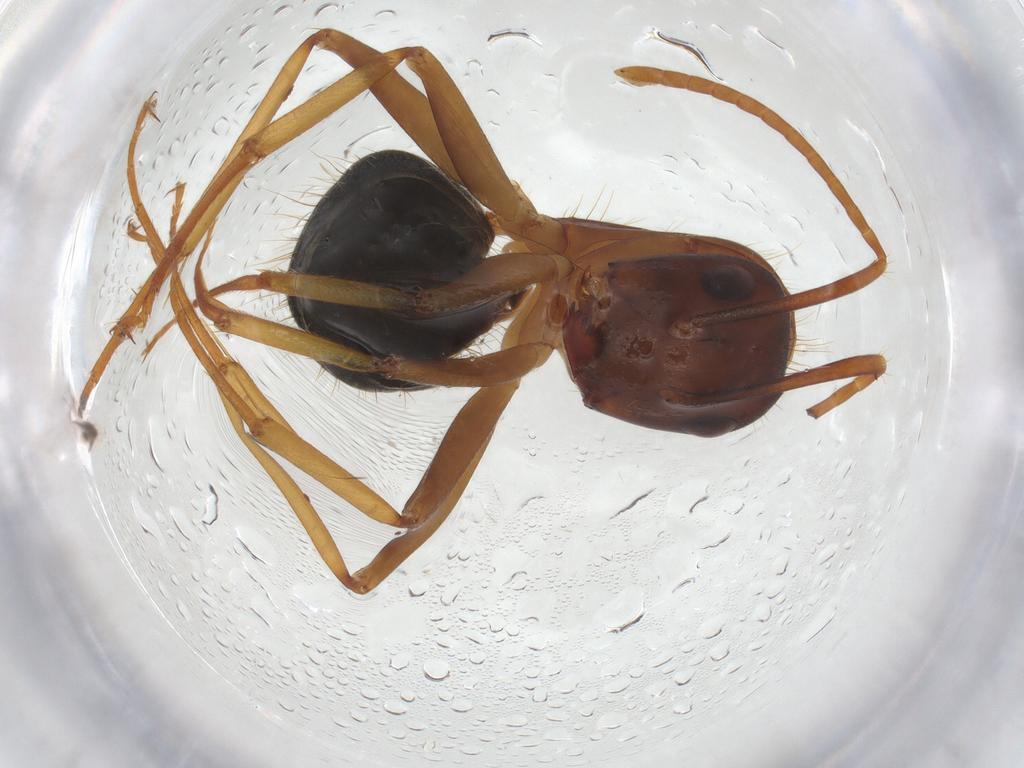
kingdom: Animalia
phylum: Arthropoda
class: Insecta
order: Hymenoptera
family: Formicidae
